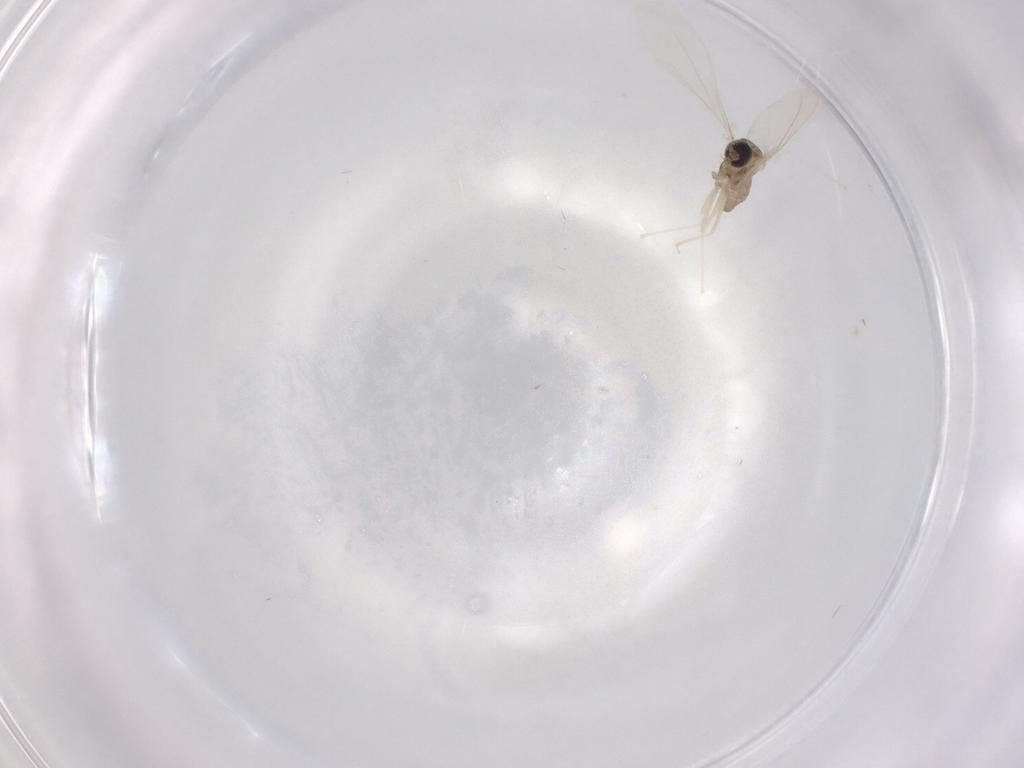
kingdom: Animalia
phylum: Arthropoda
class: Insecta
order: Diptera
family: Cecidomyiidae
